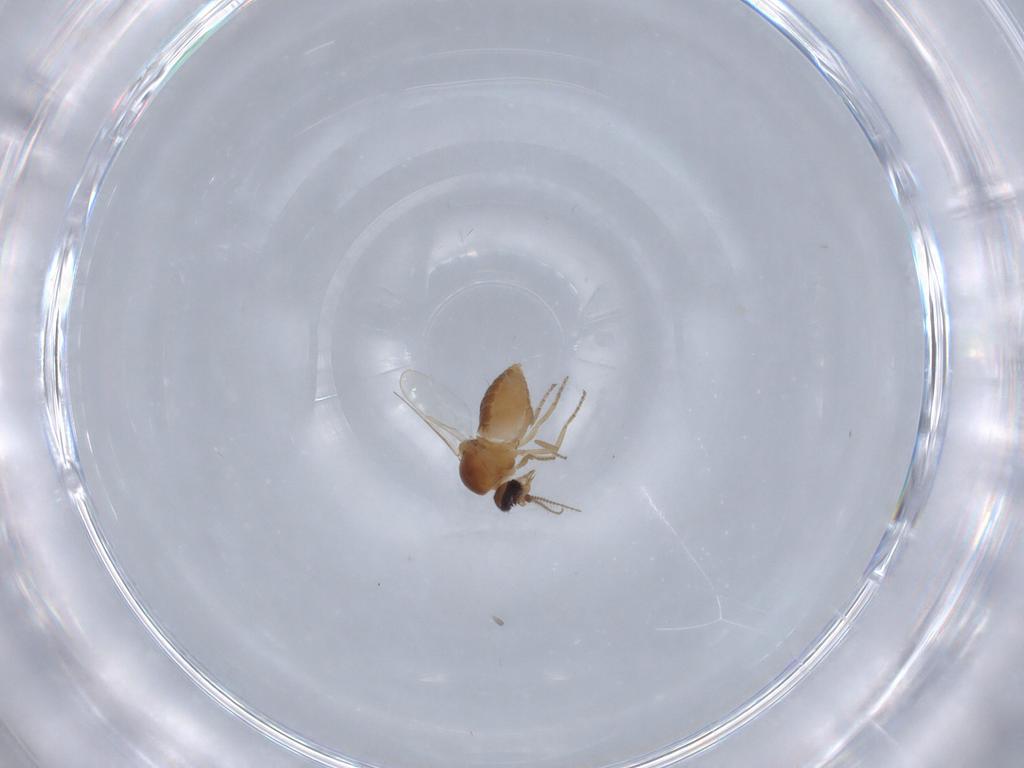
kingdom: Animalia
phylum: Arthropoda
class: Insecta
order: Diptera
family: Ceratopogonidae
